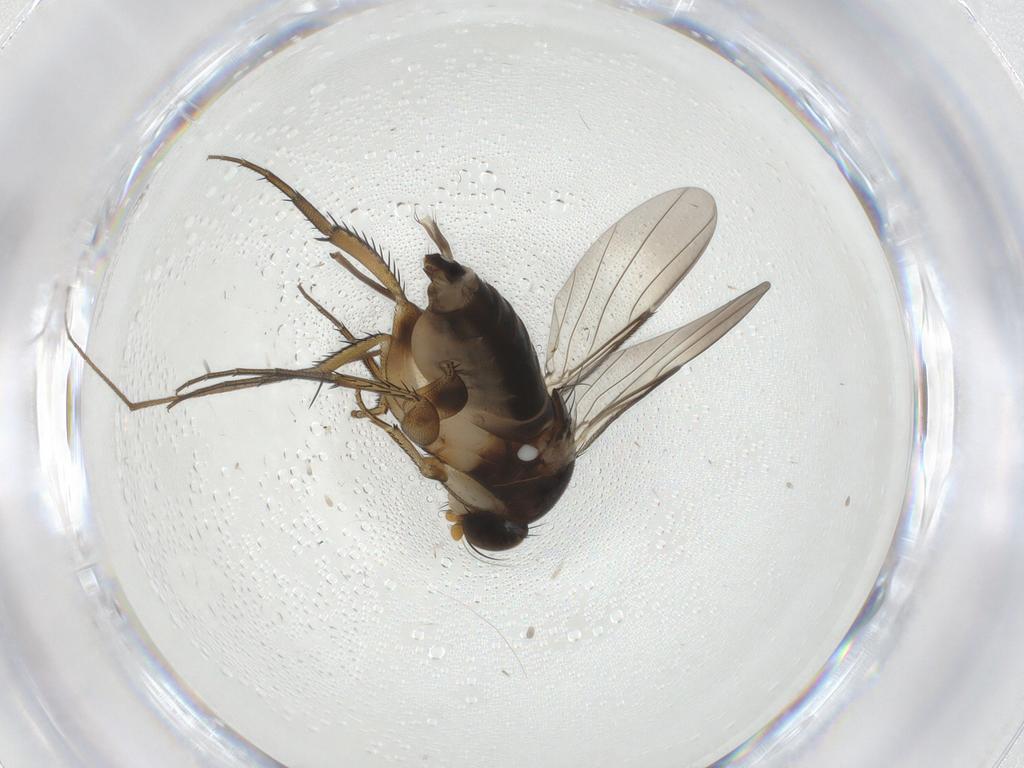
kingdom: Animalia
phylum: Arthropoda
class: Insecta
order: Diptera
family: Limoniidae
